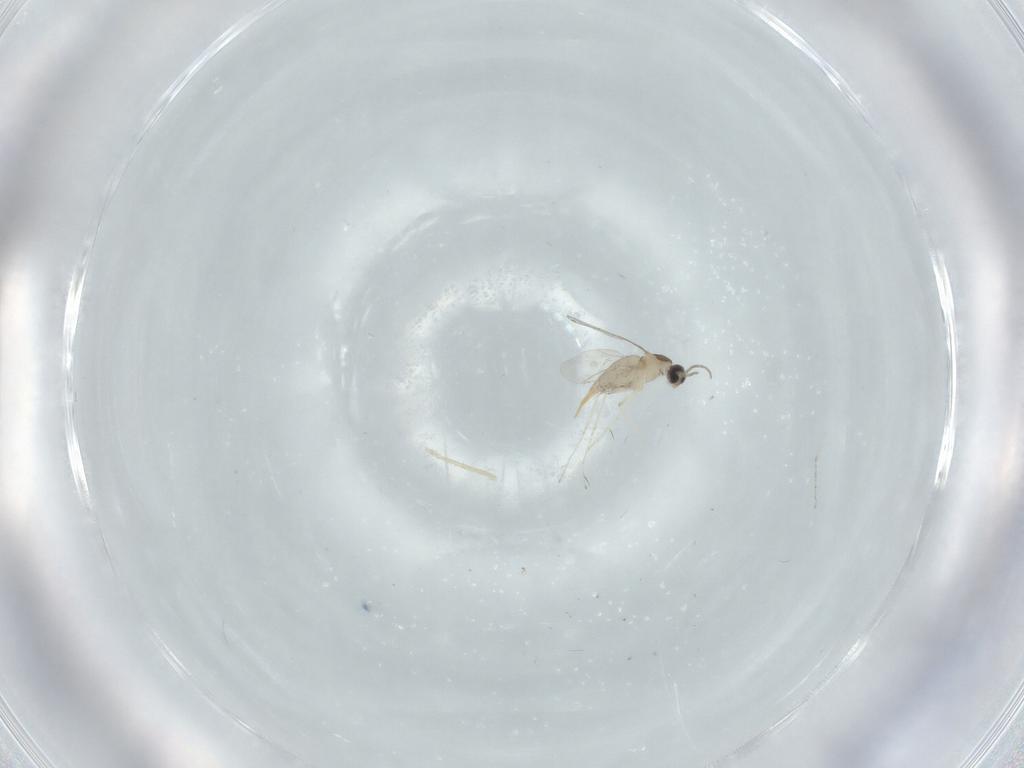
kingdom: Animalia
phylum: Arthropoda
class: Insecta
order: Diptera
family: Cecidomyiidae
